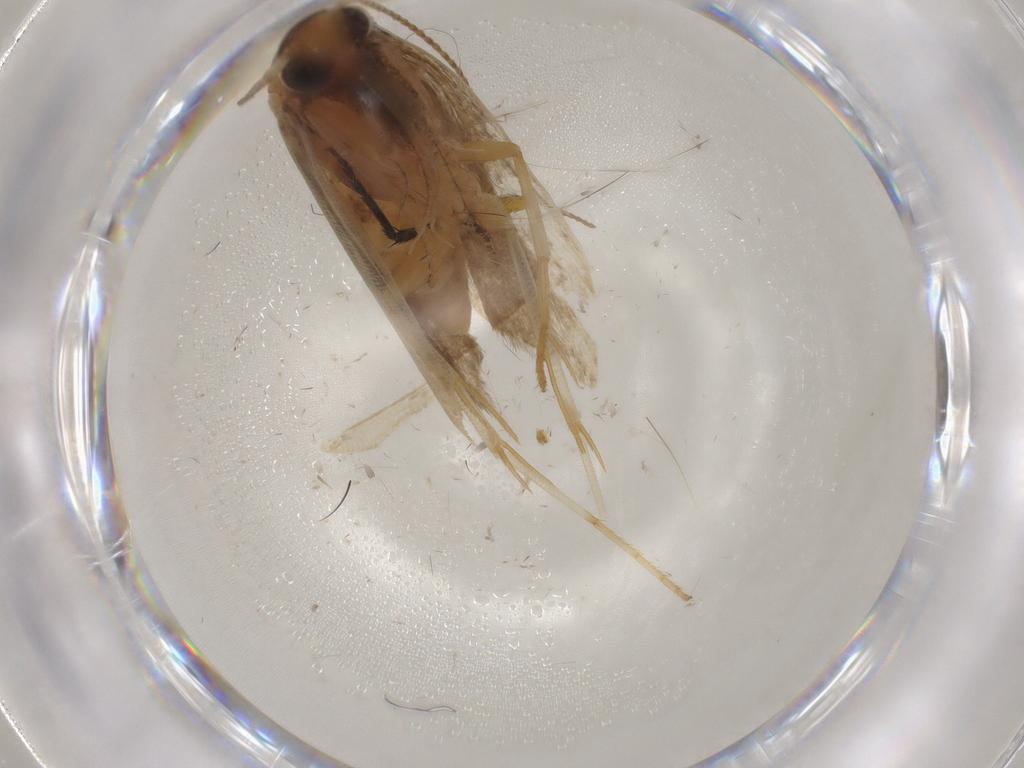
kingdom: Animalia
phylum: Arthropoda
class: Insecta
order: Lepidoptera
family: Gelechiidae
